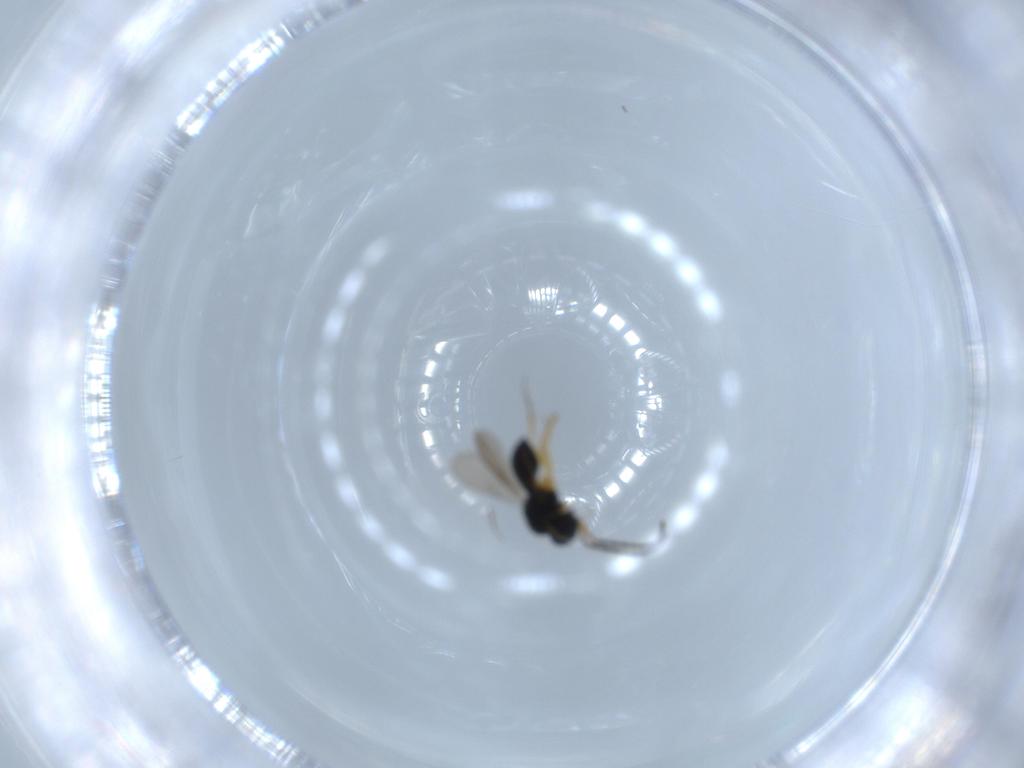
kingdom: Animalia
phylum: Arthropoda
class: Insecta
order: Hymenoptera
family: Scelionidae
